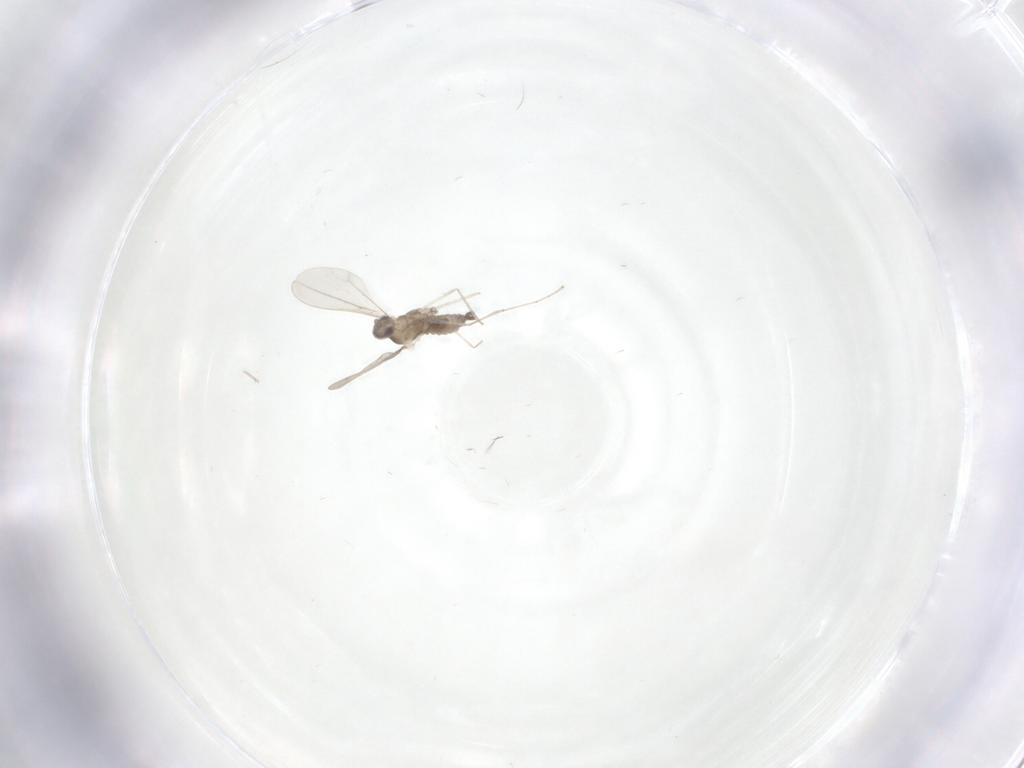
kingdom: Animalia
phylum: Arthropoda
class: Insecta
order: Diptera
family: Cecidomyiidae
